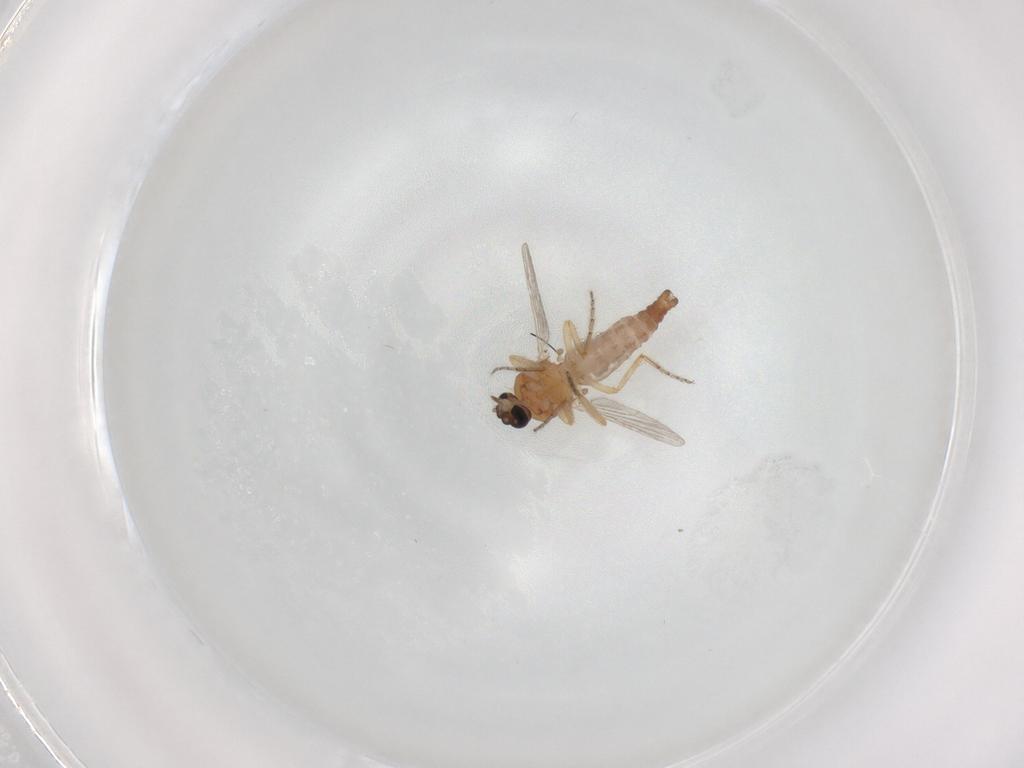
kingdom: Animalia
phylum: Arthropoda
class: Insecta
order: Diptera
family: Ceratopogonidae
